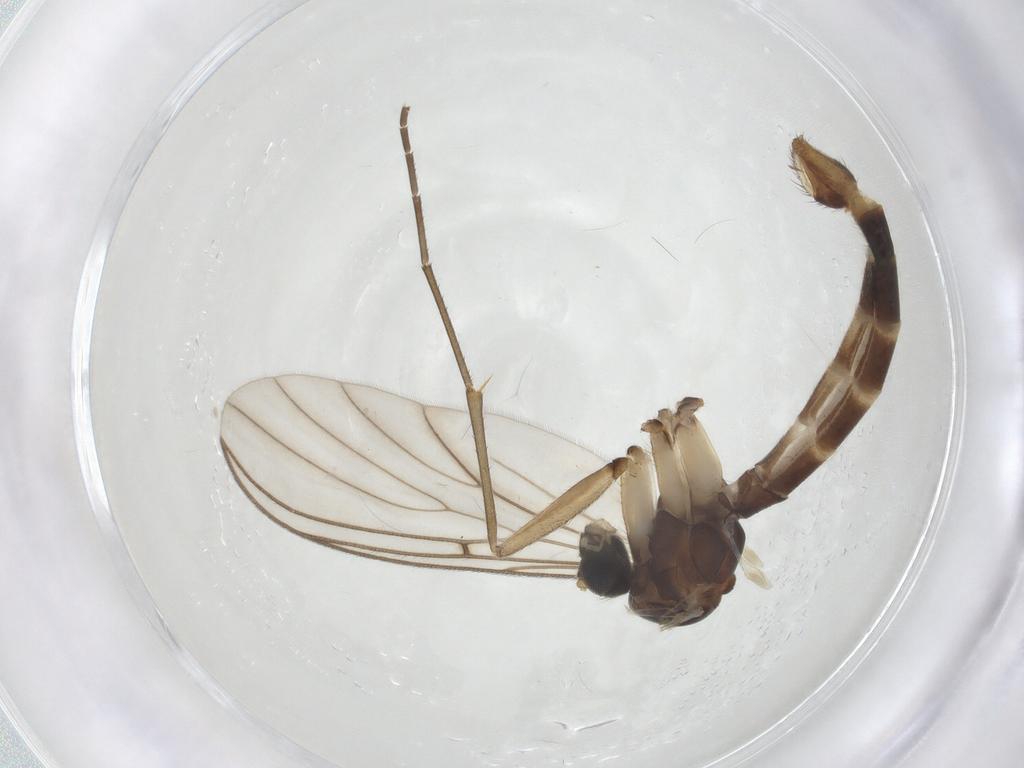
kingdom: Animalia
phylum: Arthropoda
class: Insecta
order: Diptera
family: Mycetophilidae
